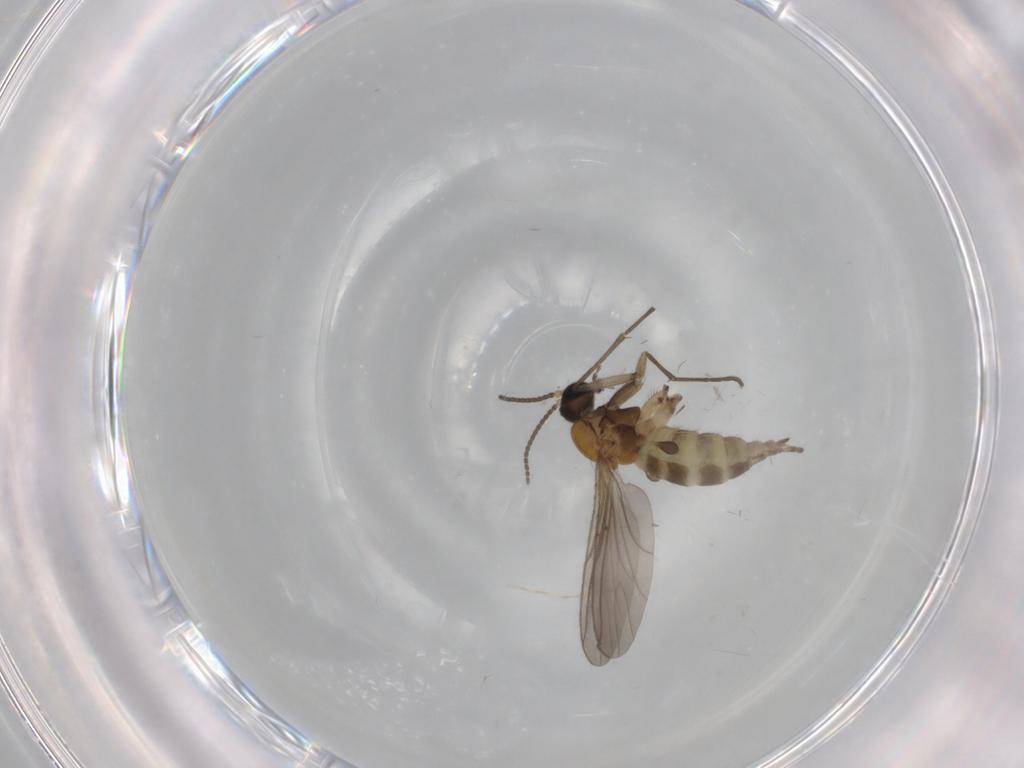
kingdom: Animalia
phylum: Arthropoda
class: Insecta
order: Diptera
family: Sciaridae
